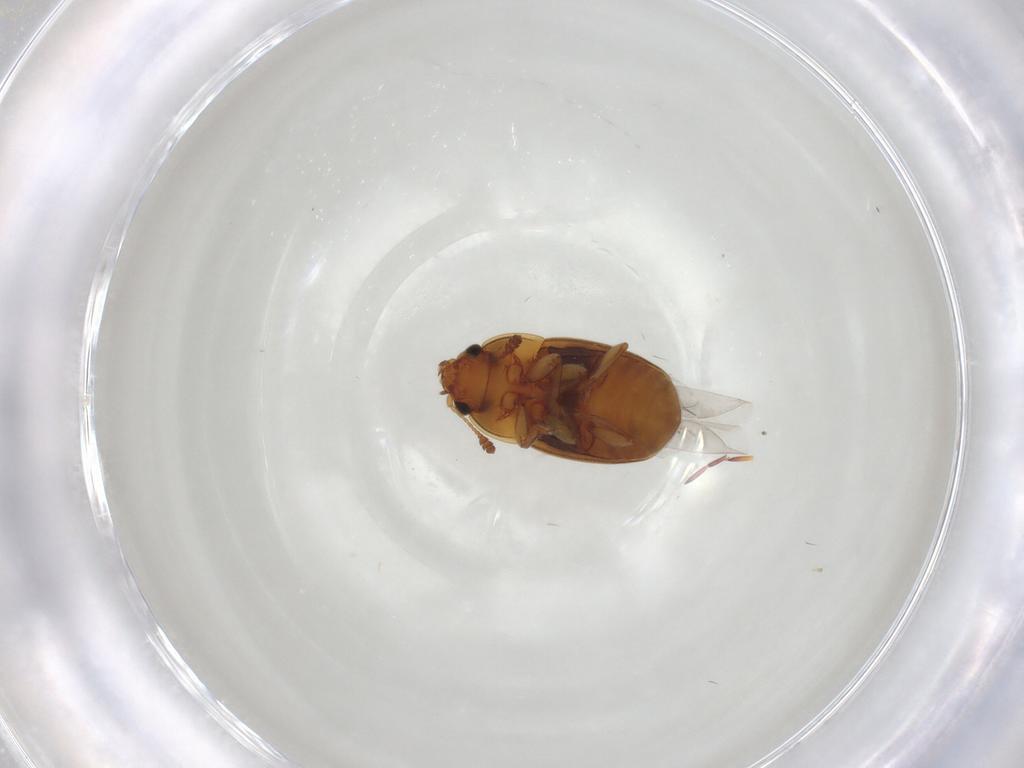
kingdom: Animalia
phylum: Arthropoda
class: Insecta
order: Coleoptera
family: Nitidulidae
